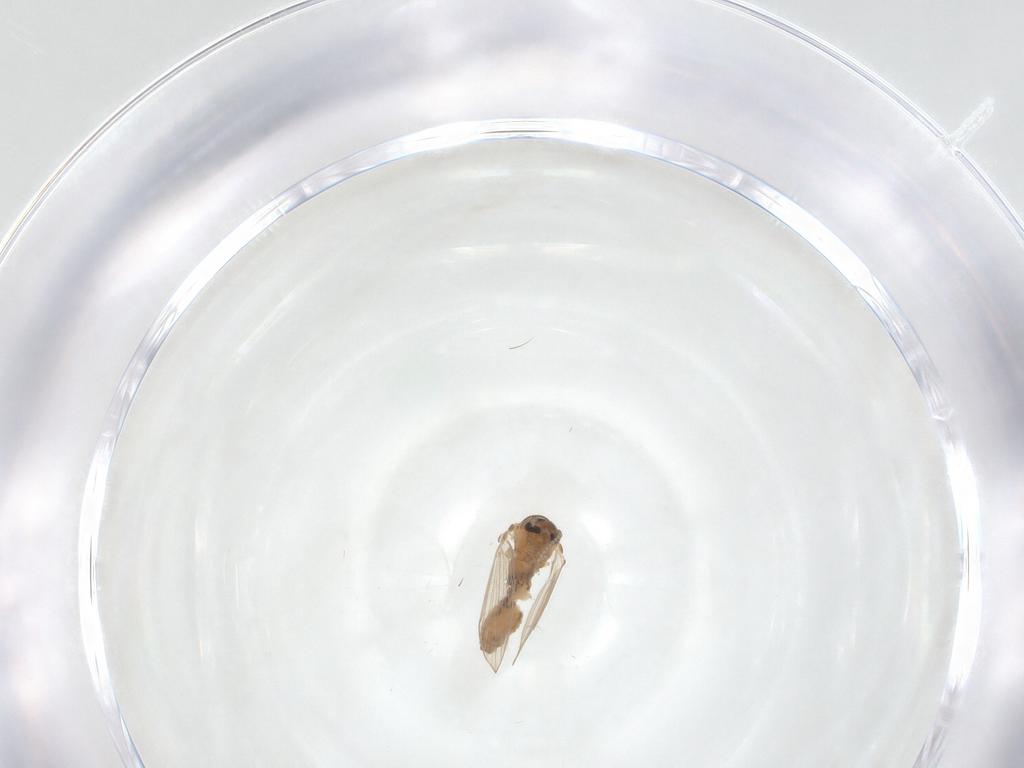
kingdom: Animalia
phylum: Arthropoda
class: Insecta
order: Diptera
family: Psychodidae
